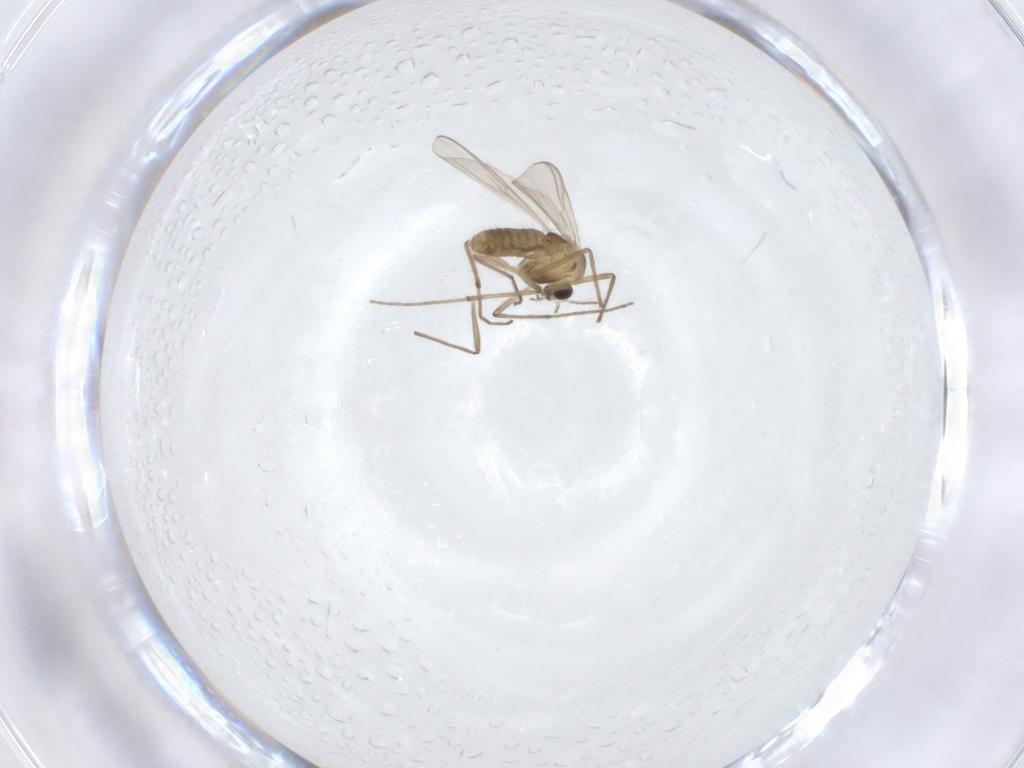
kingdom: Animalia
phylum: Arthropoda
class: Insecta
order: Diptera
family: Chironomidae
